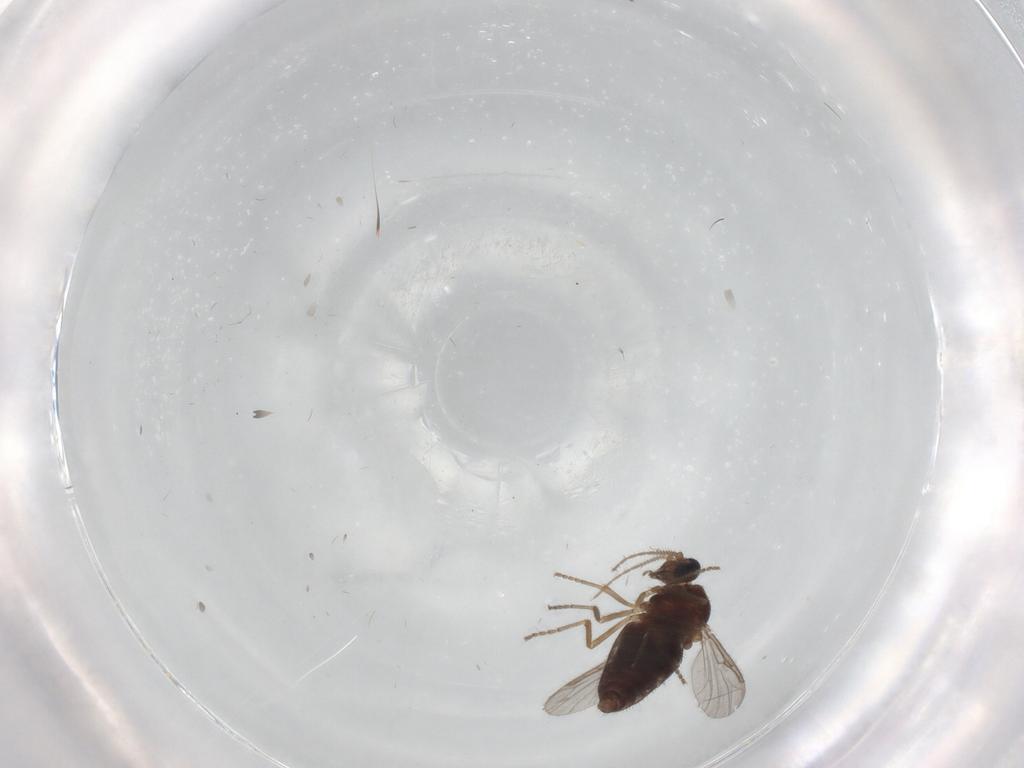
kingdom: Animalia
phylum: Arthropoda
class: Insecta
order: Diptera
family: Ceratopogonidae
